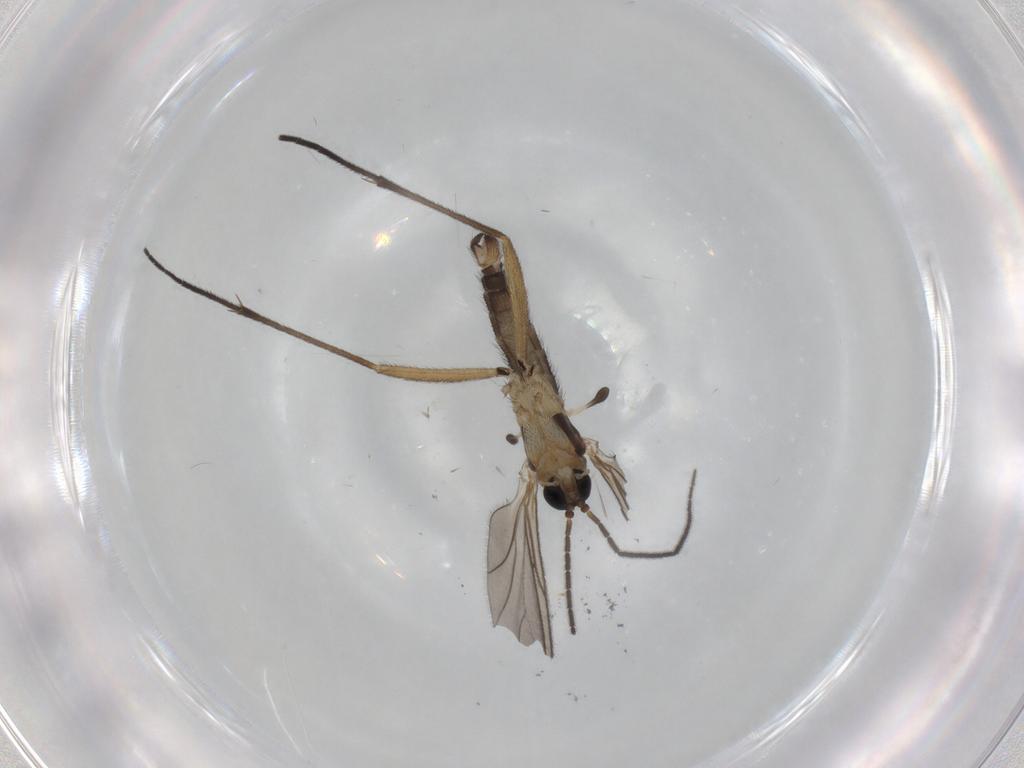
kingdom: Animalia
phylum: Arthropoda
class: Insecta
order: Diptera
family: Sciaridae
